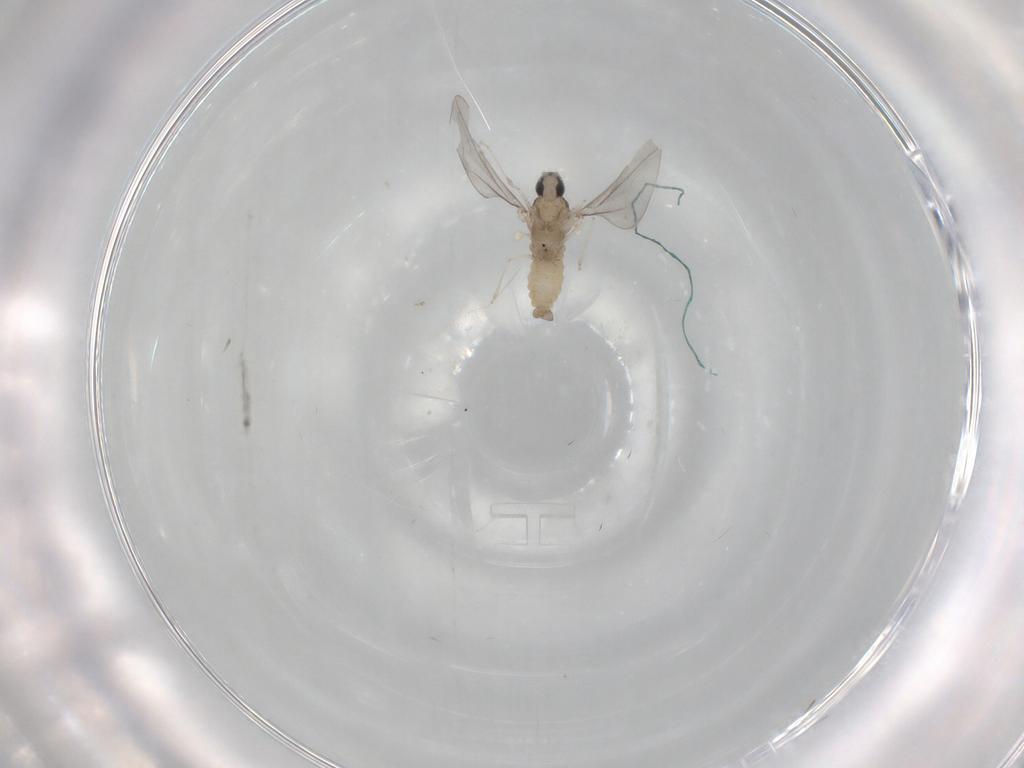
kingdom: Animalia
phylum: Arthropoda
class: Insecta
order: Diptera
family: Cecidomyiidae
